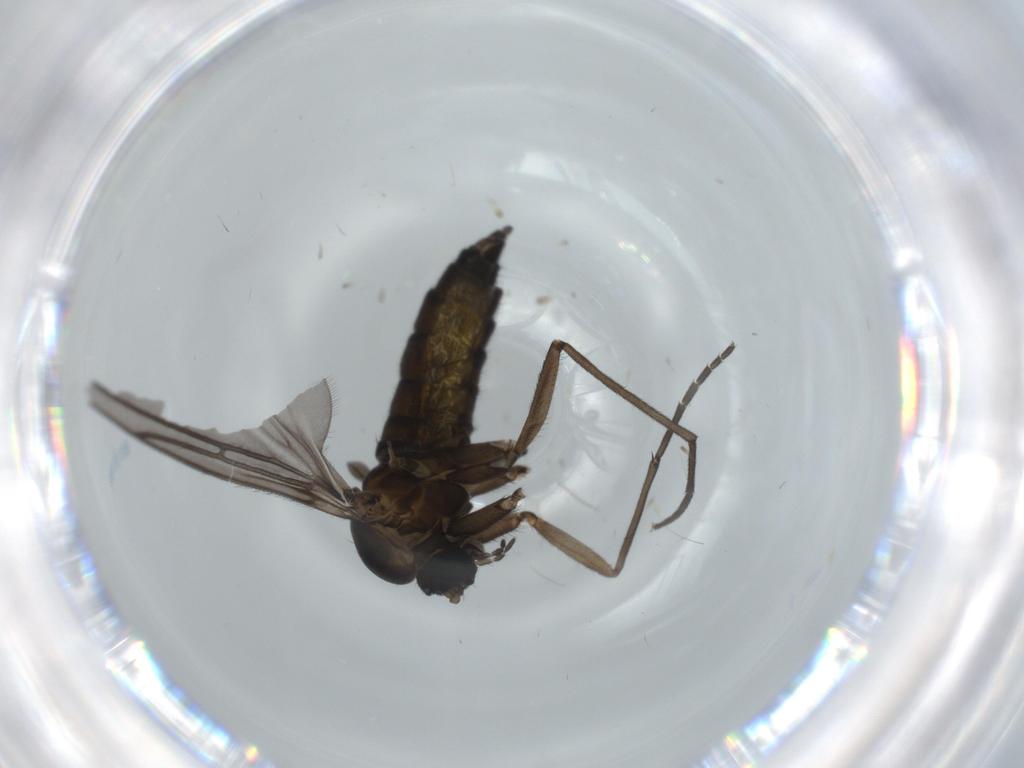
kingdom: Animalia
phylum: Arthropoda
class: Insecta
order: Diptera
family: Sciaridae
